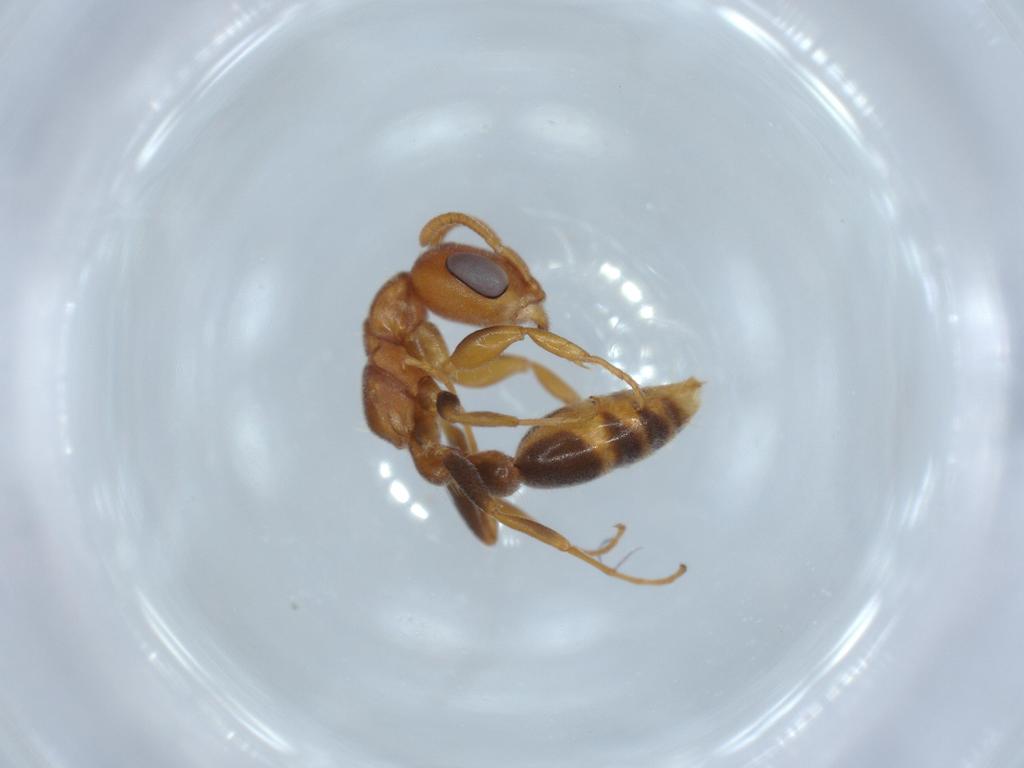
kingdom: Animalia
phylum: Arthropoda
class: Insecta
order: Hymenoptera
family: Formicidae
